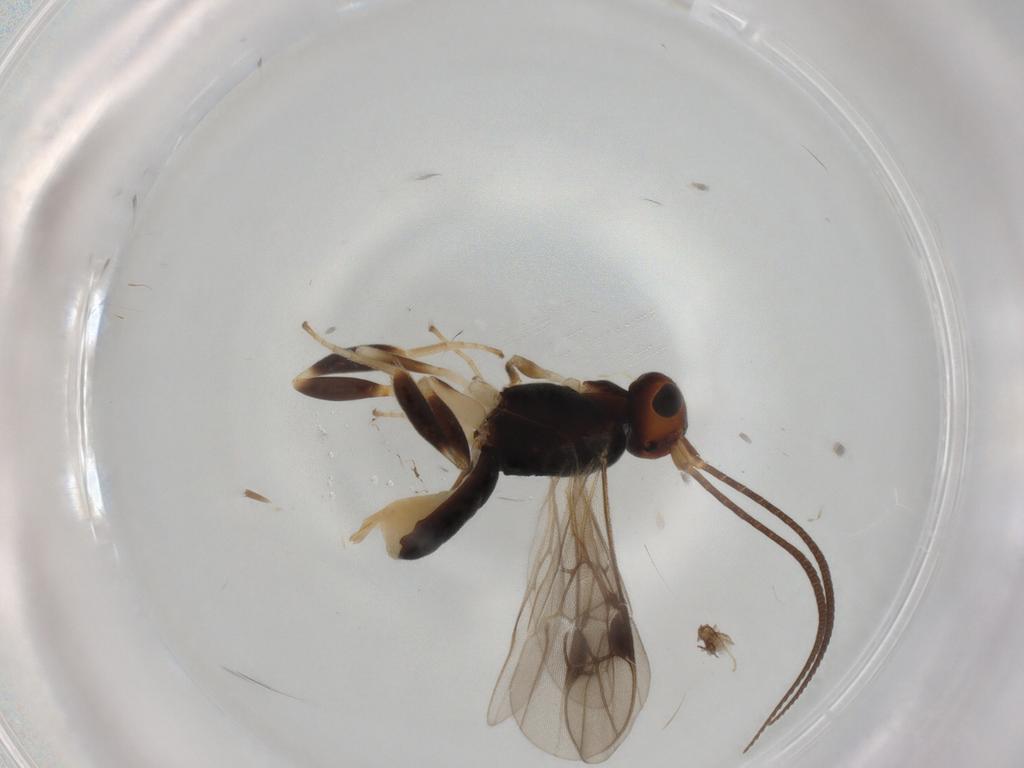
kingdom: Animalia
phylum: Arthropoda
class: Insecta
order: Hymenoptera
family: Braconidae
